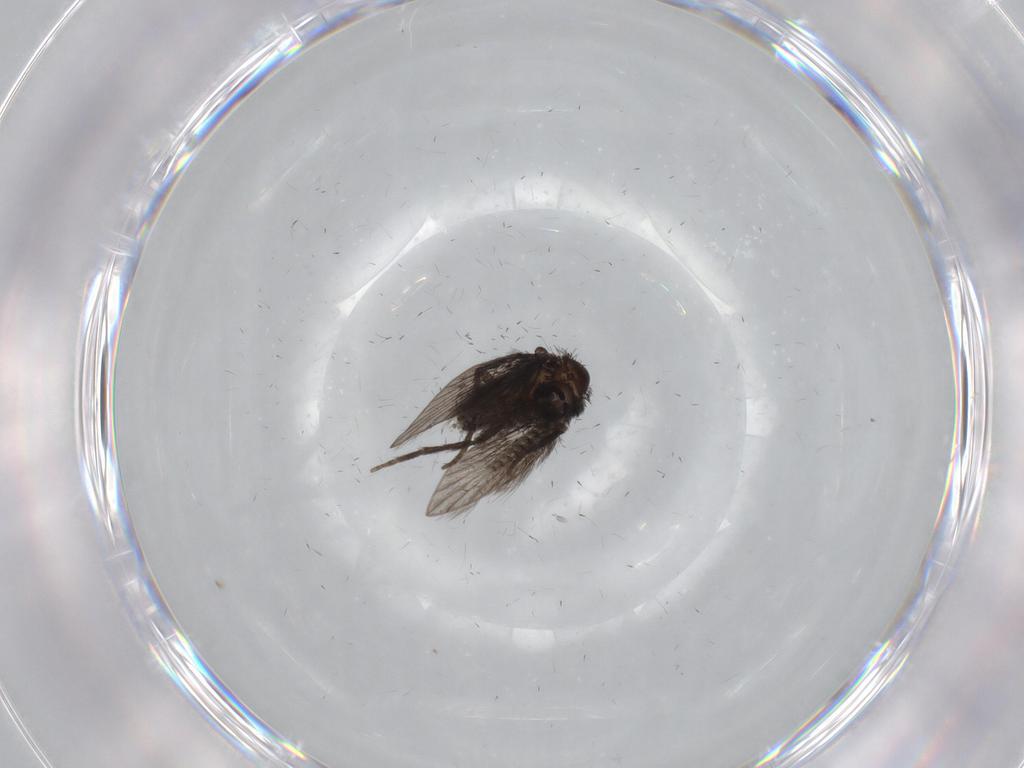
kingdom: Animalia
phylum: Arthropoda
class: Insecta
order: Diptera
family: Psychodidae
